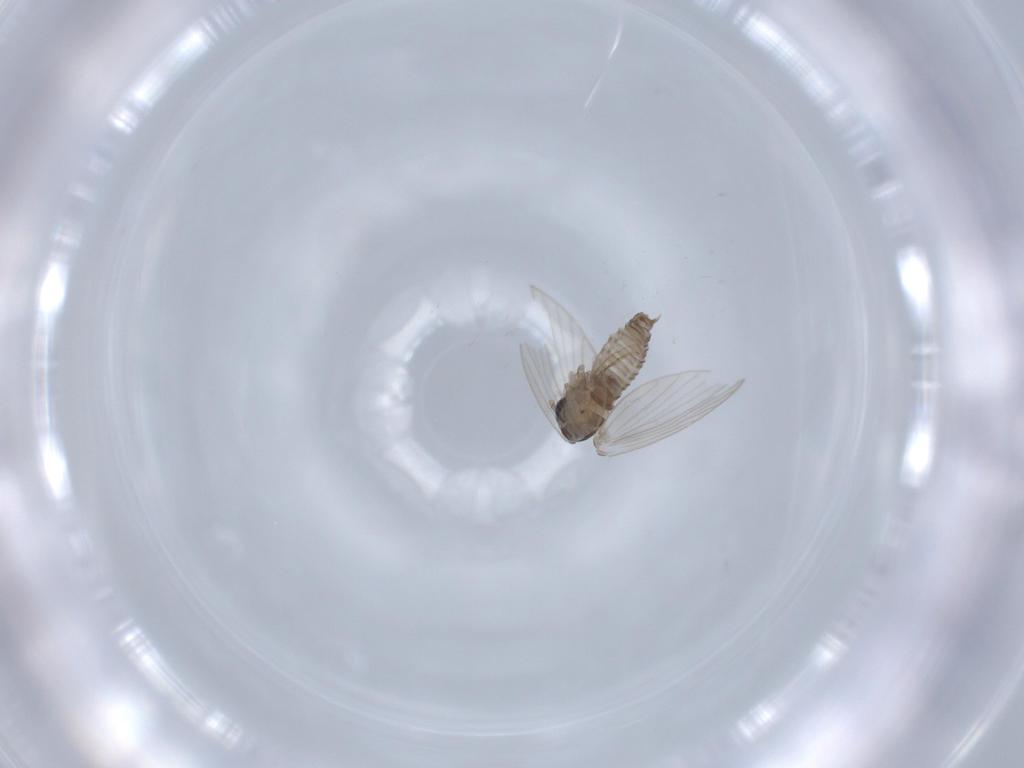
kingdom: Animalia
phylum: Arthropoda
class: Insecta
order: Diptera
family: Psychodidae
